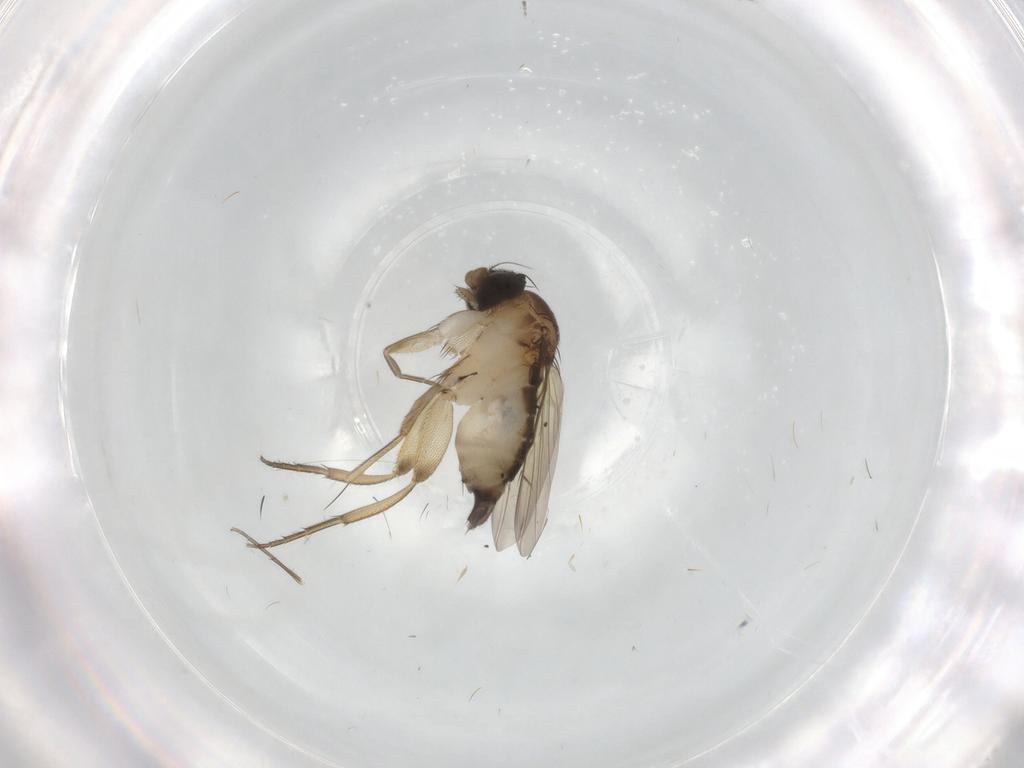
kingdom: Animalia
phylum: Arthropoda
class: Insecta
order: Diptera
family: Phoridae
